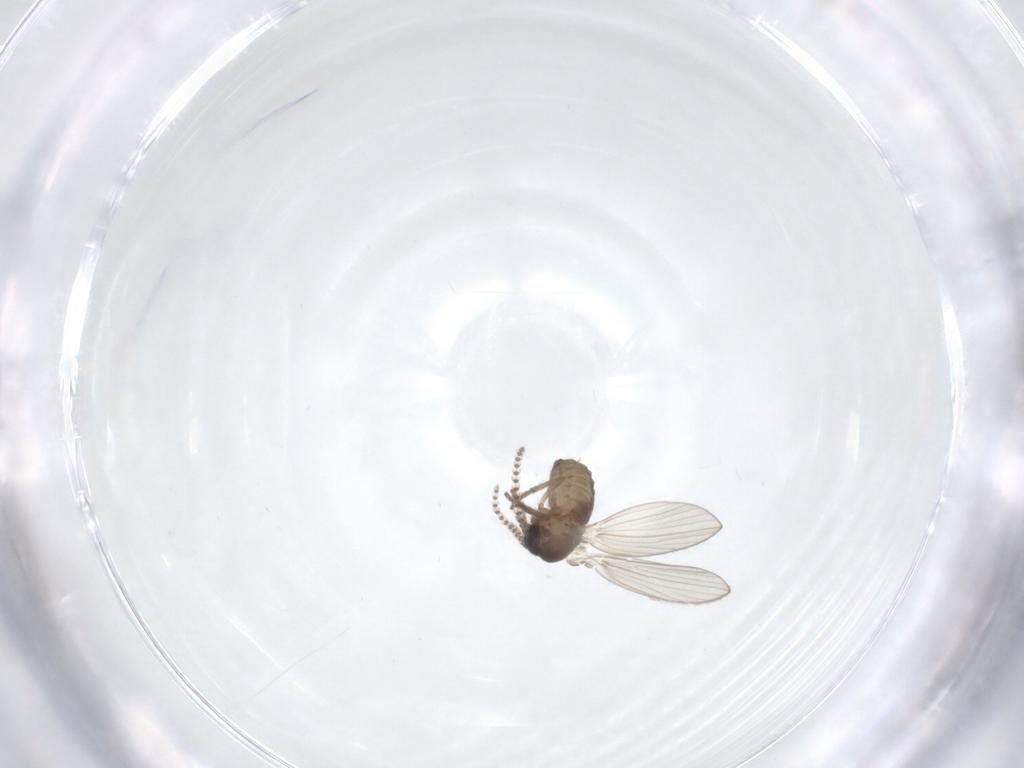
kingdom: Animalia
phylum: Arthropoda
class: Insecta
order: Diptera
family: Psychodidae
